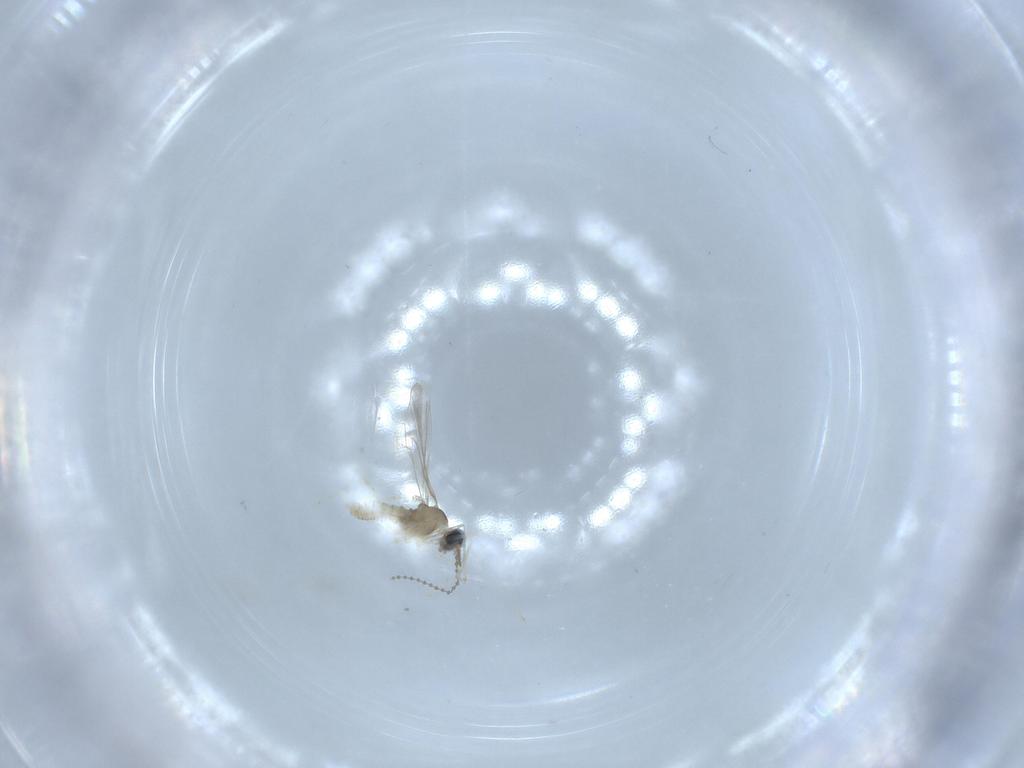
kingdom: Animalia
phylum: Arthropoda
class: Insecta
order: Diptera
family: Cecidomyiidae
